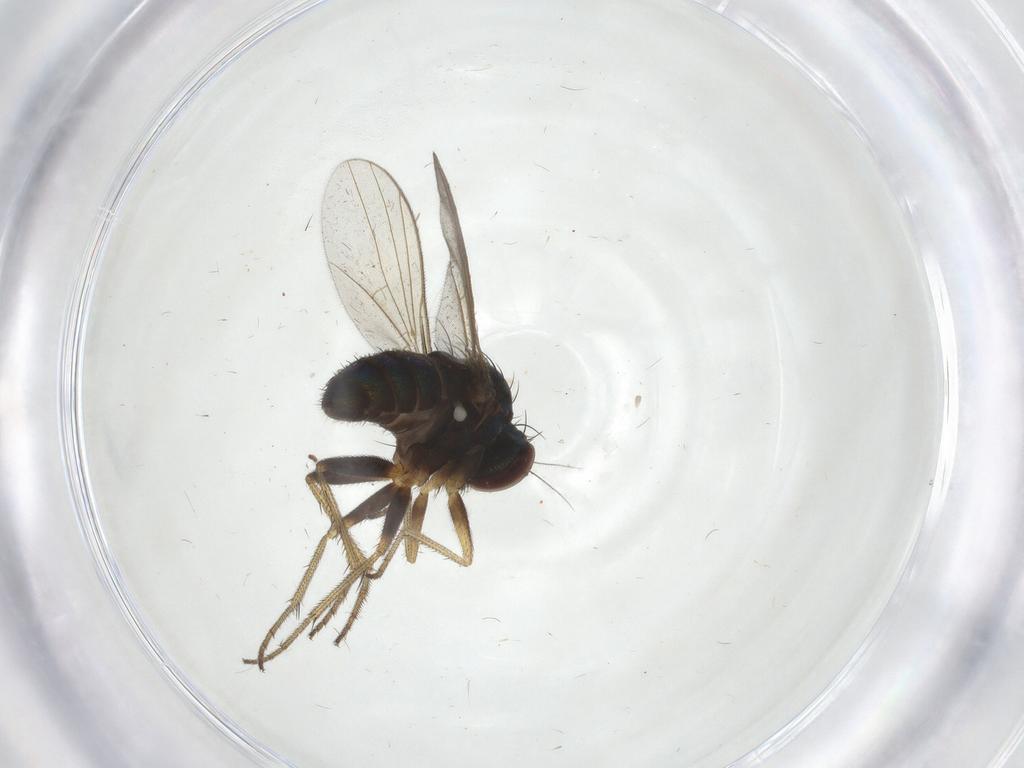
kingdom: Animalia
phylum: Arthropoda
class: Insecta
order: Diptera
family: Dolichopodidae
